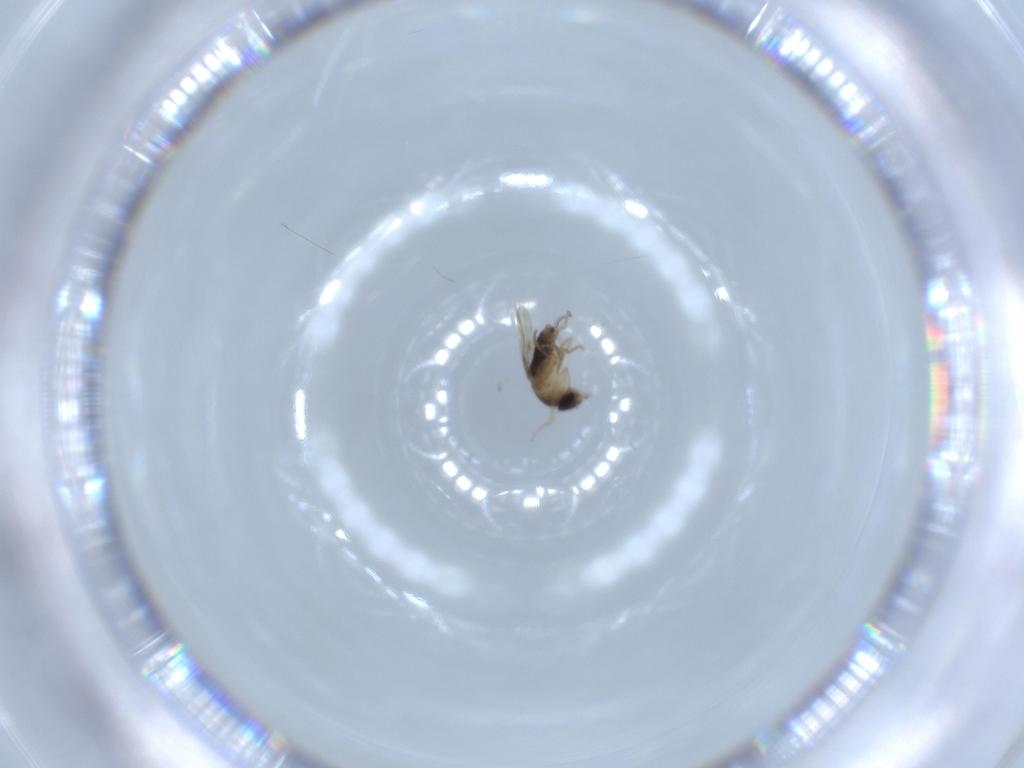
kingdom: Animalia
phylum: Arthropoda
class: Insecta
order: Diptera
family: Phoridae
